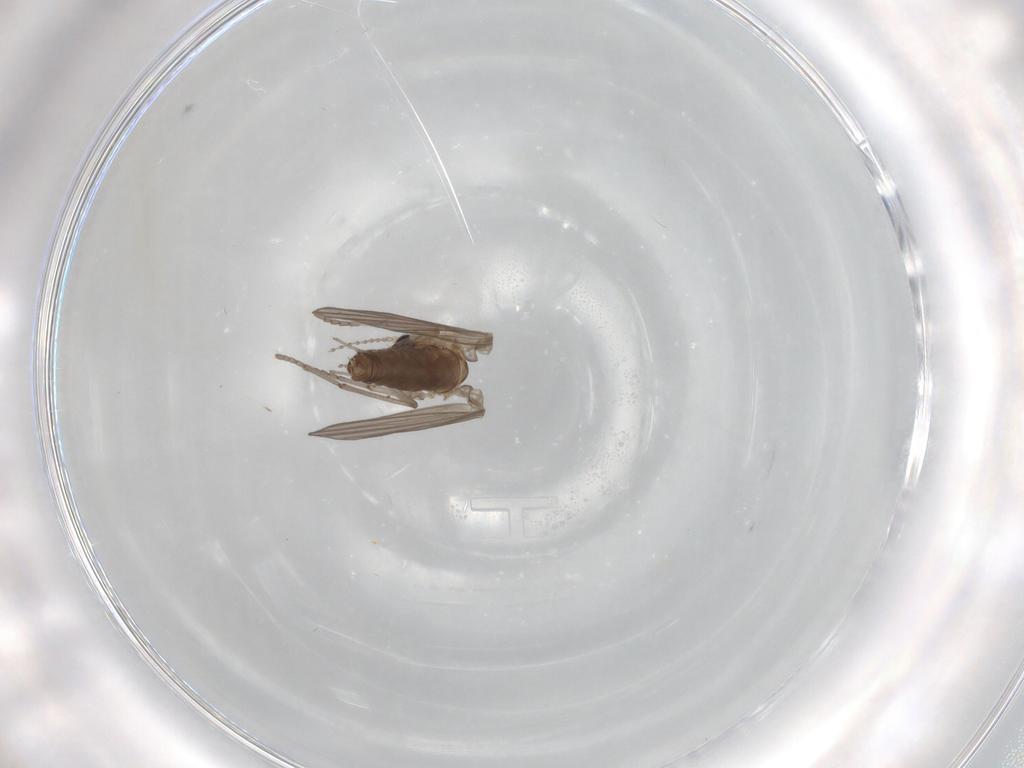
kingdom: Animalia
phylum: Arthropoda
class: Insecta
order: Diptera
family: Psychodidae
